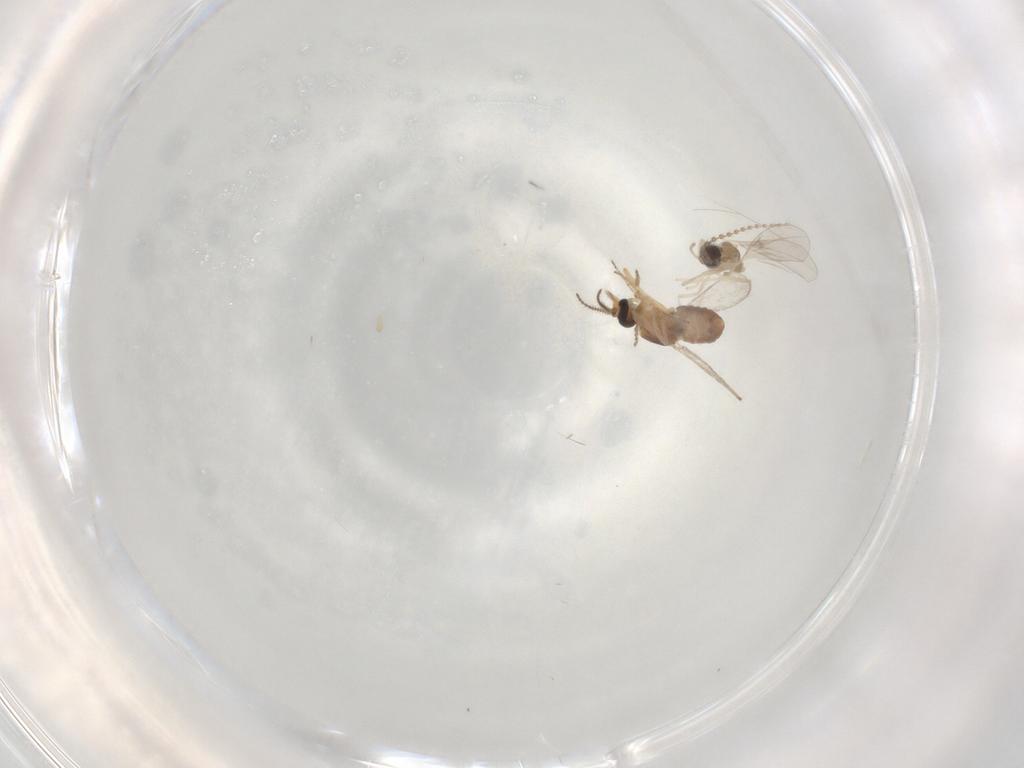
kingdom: Animalia
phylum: Arthropoda
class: Insecta
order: Diptera
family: Ceratopogonidae
